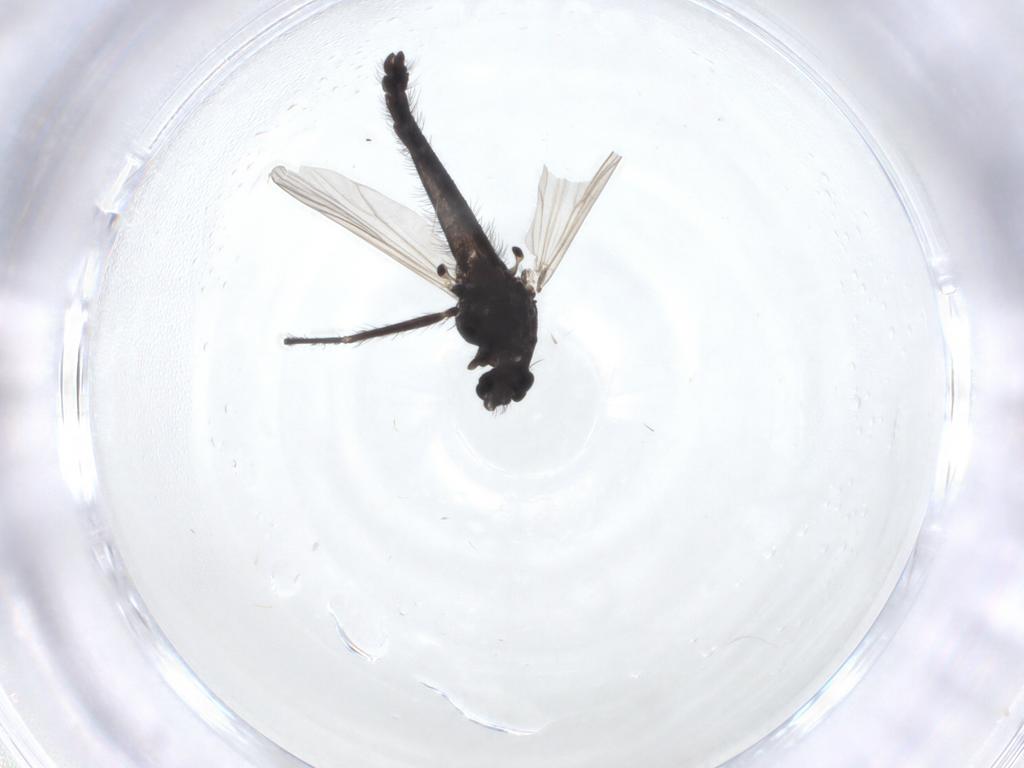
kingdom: Animalia
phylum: Arthropoda
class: Insecta
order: Diptera
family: Chironomidae
